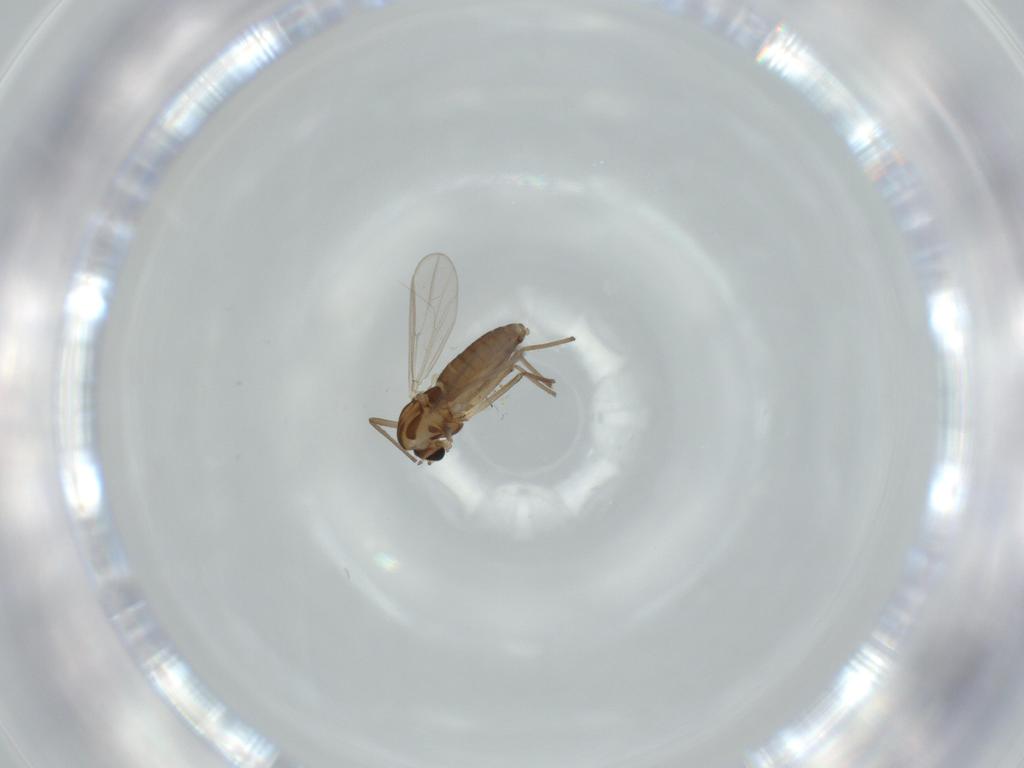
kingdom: Animalia
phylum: Arthropoda
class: Insecta
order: Diptera
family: Chironomidae
